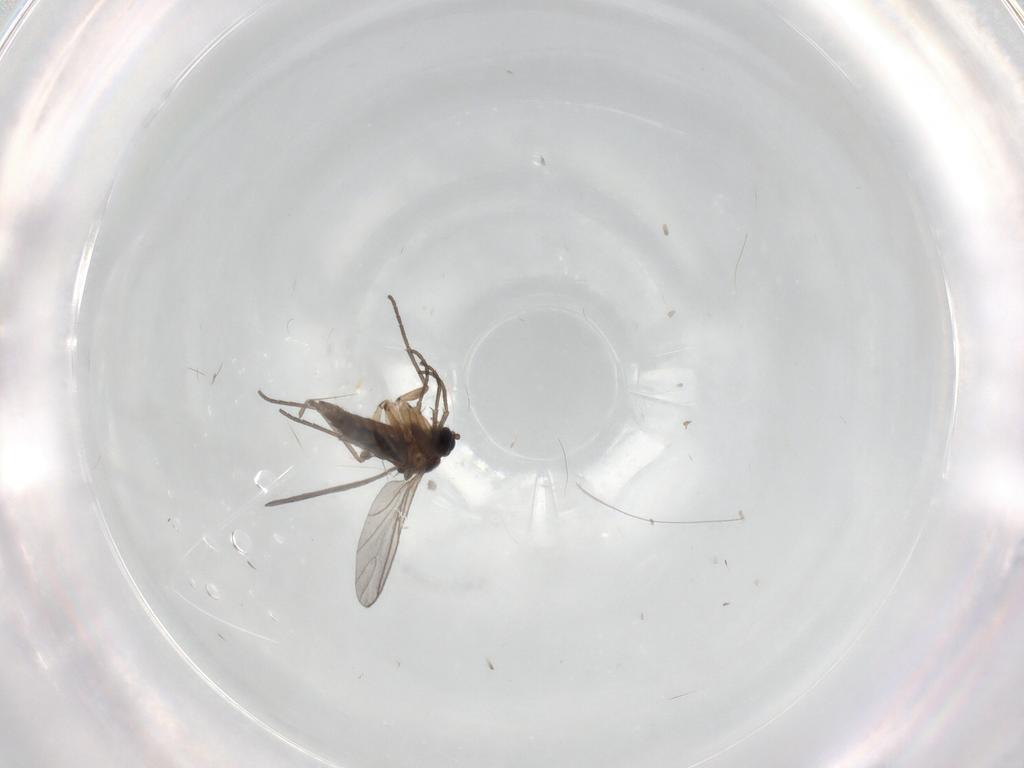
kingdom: Animalia
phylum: Arthropoda
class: Insecta
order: Diptera
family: Sciaridae
